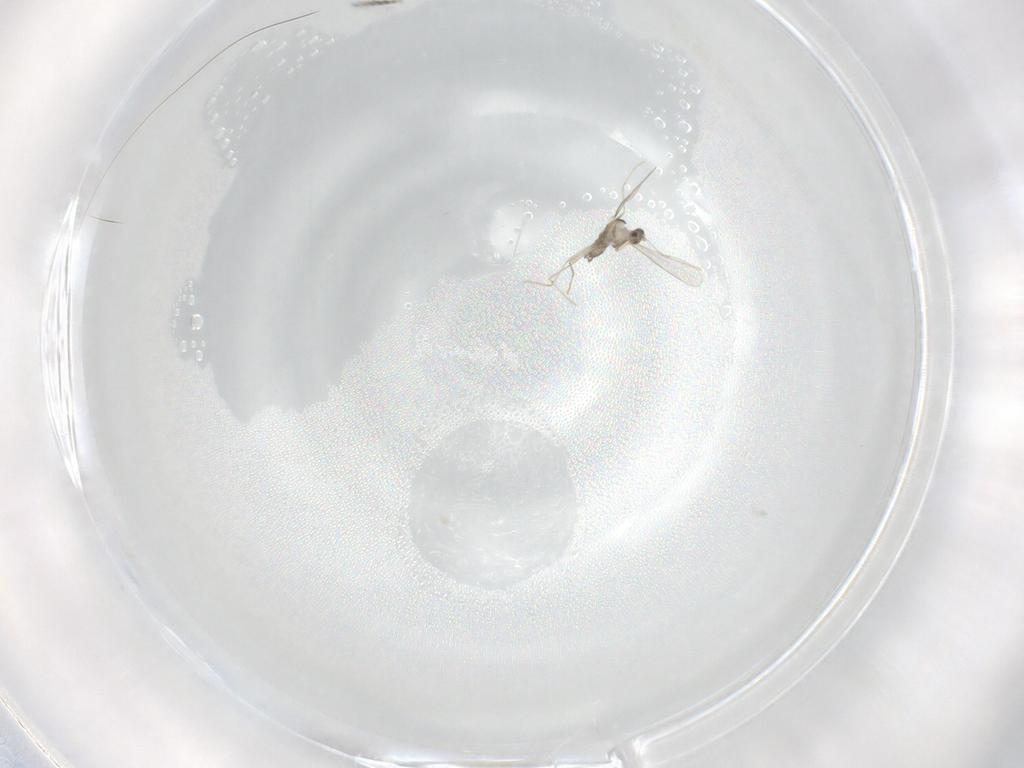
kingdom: Animalia
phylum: Arthropoda
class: Insecta
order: Diptera
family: Cecidomyiidae
